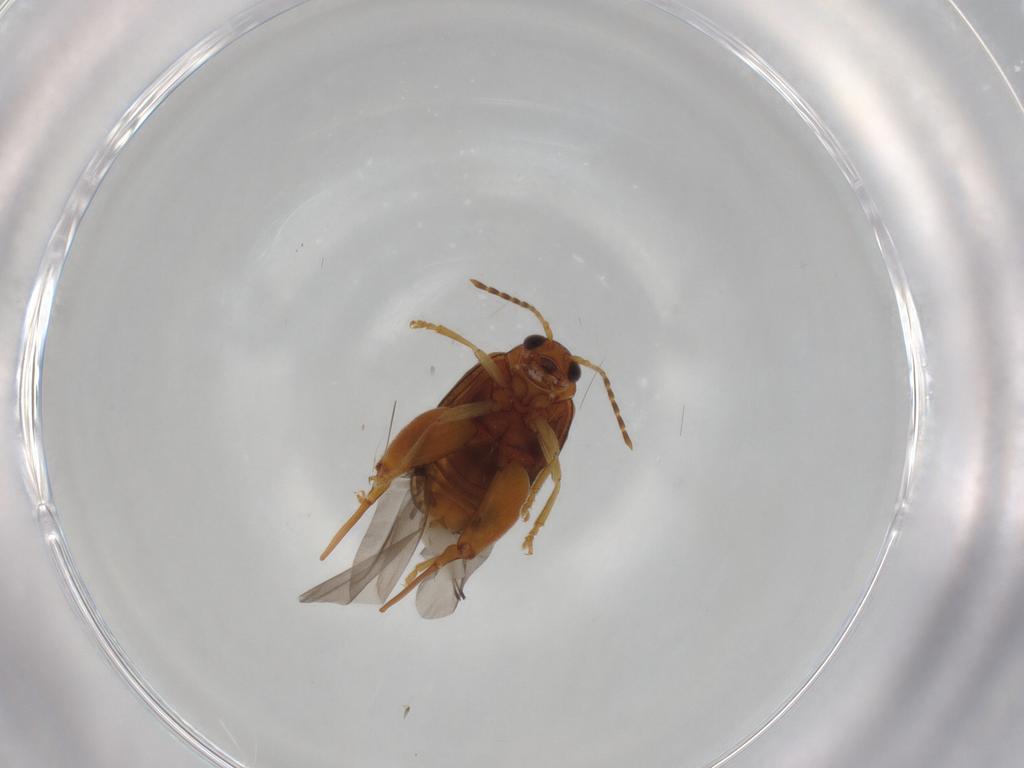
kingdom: Animalia
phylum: Arthropoda
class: Insecta
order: Coleoptera
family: Chrysomelidae
